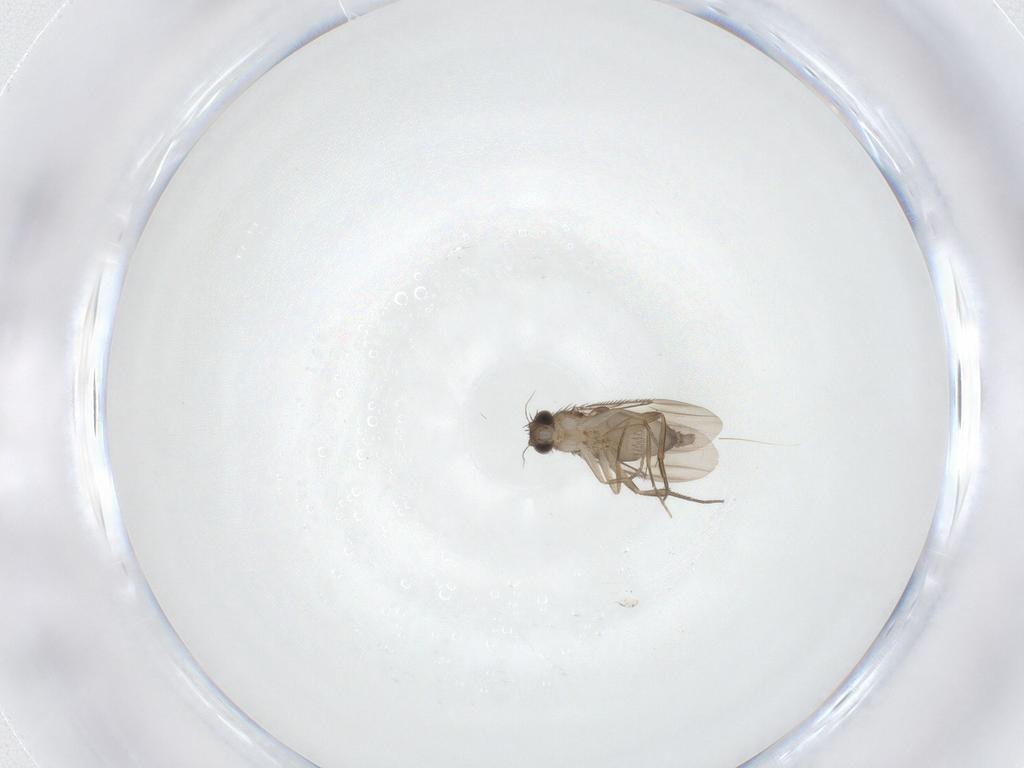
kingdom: Animalia
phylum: Arthropoda
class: Insecta
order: Diptera
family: Phoridae
